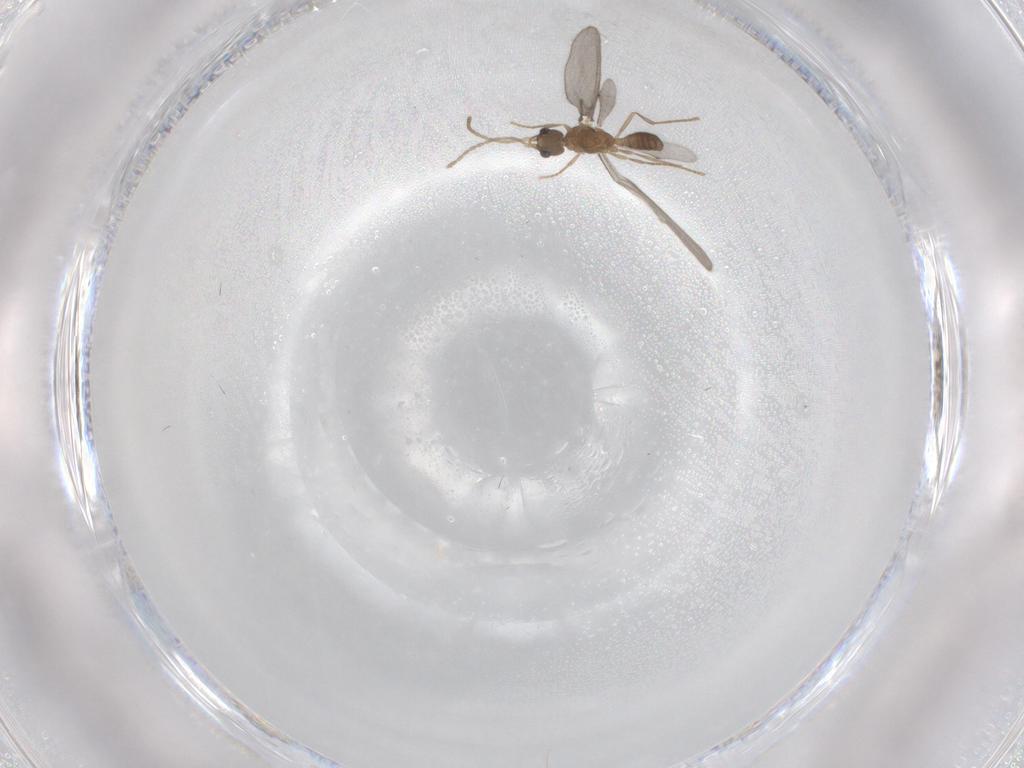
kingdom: Animalia
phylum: Arthropoda
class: Insecta
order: Hymenoptera
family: Formicidae
